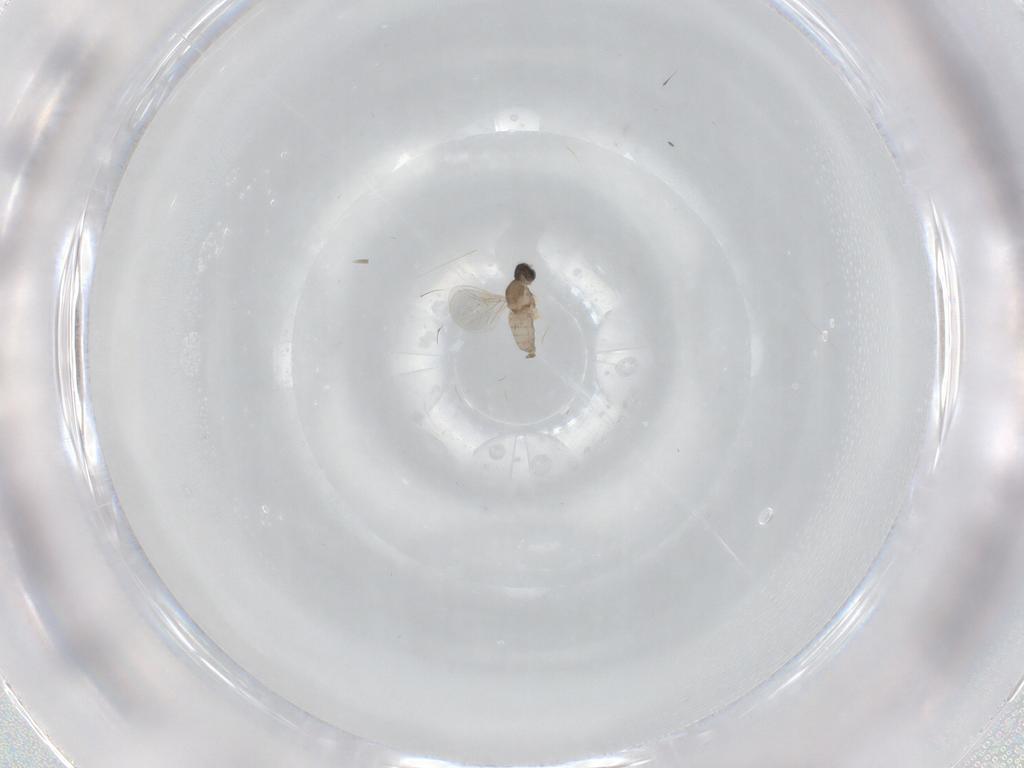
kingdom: Animalia
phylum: Arthropoda
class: Insecta
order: Diptera
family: Cecidomyiidae
